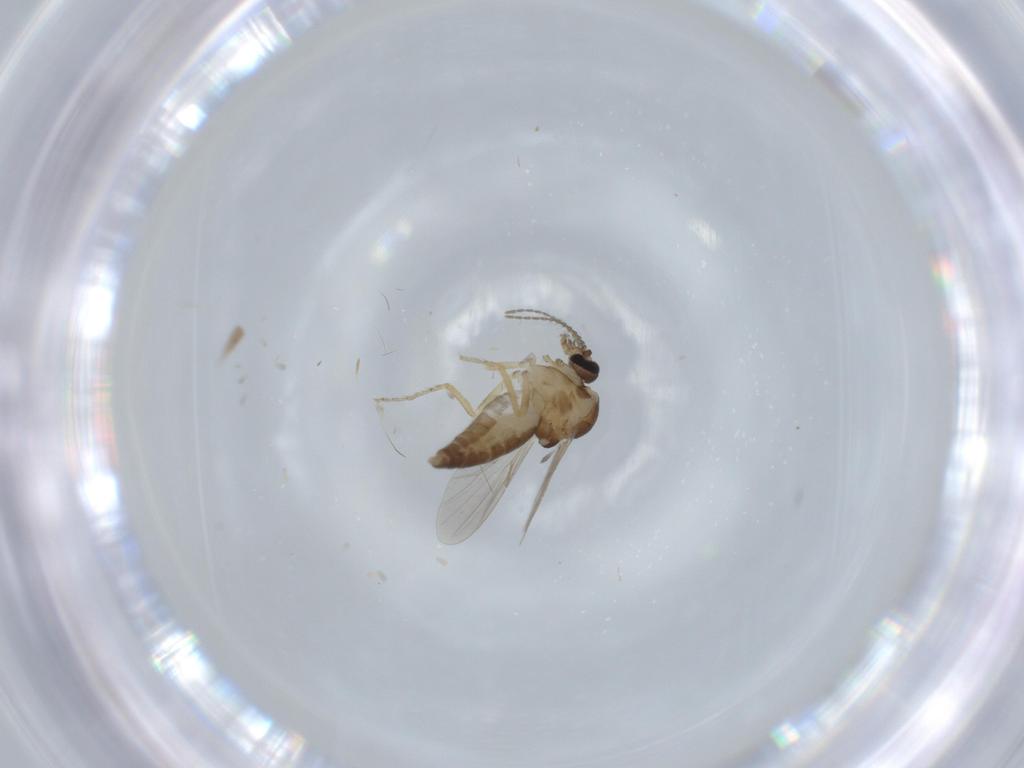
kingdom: Animalia
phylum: Arthropoda
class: Insecta
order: Diptera
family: Ceratopogonidae
